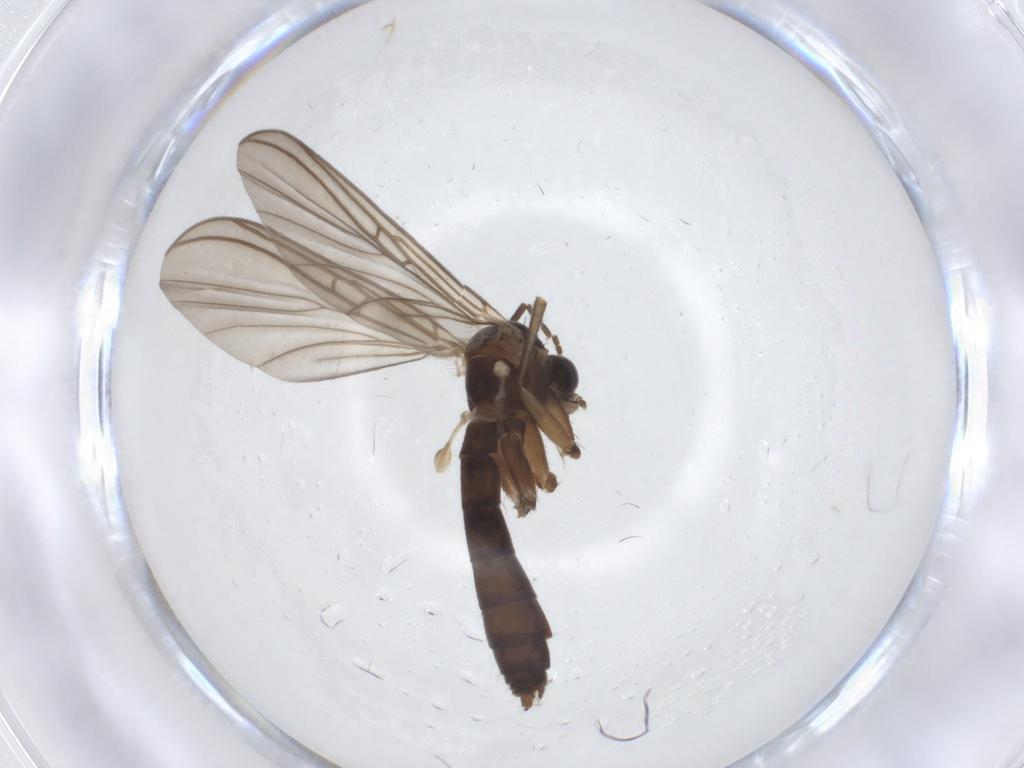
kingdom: Animalia
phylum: Arthropoda
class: Insecta
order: Diptera
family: Mycetophilidae
